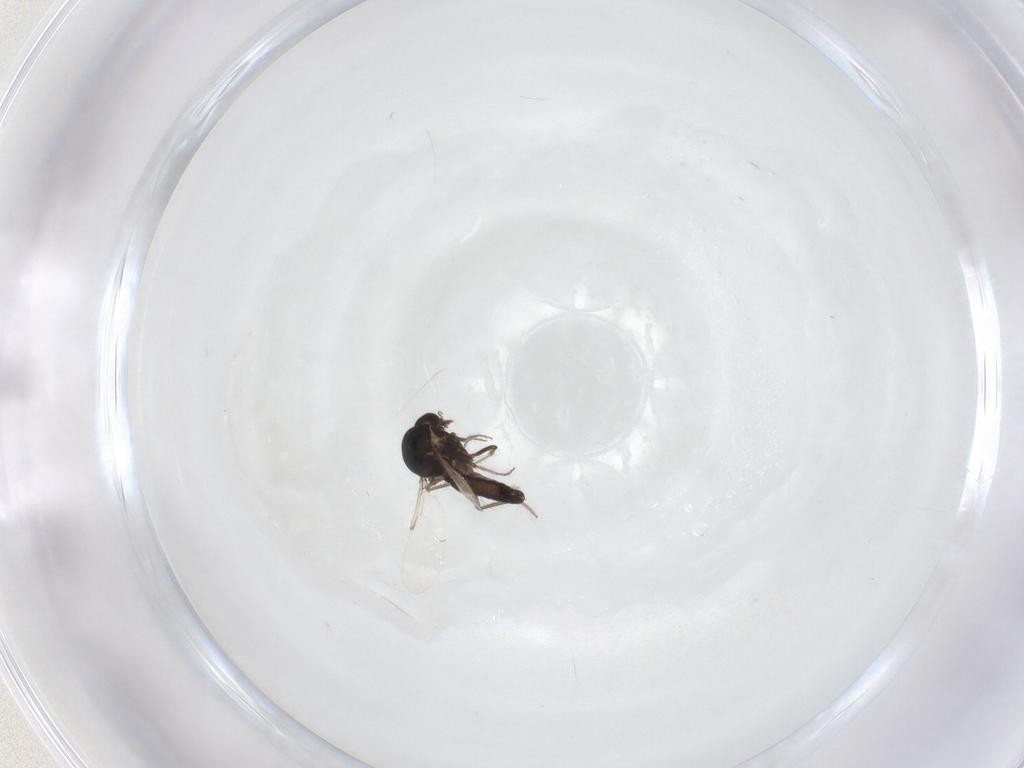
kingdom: Animalia
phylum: Arthropoda
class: Insecta
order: Diptera
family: Ceratopogonidae
